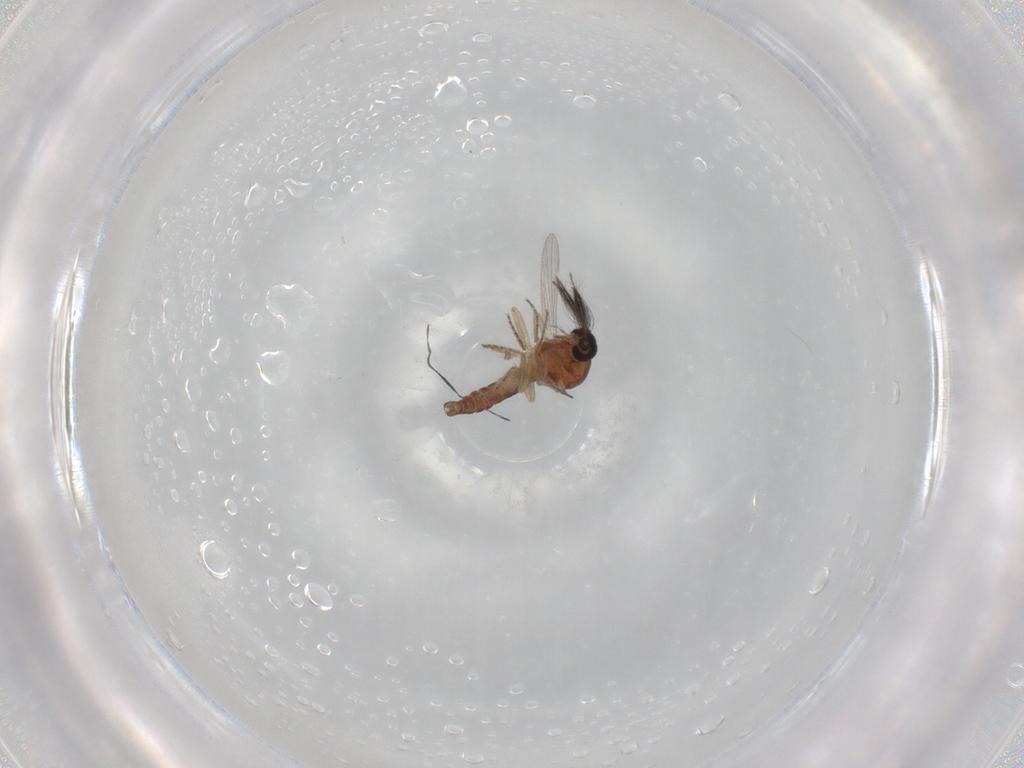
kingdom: Animalia
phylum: Arthropoda
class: Insecta
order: Diptera
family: Ceratopogonidae
